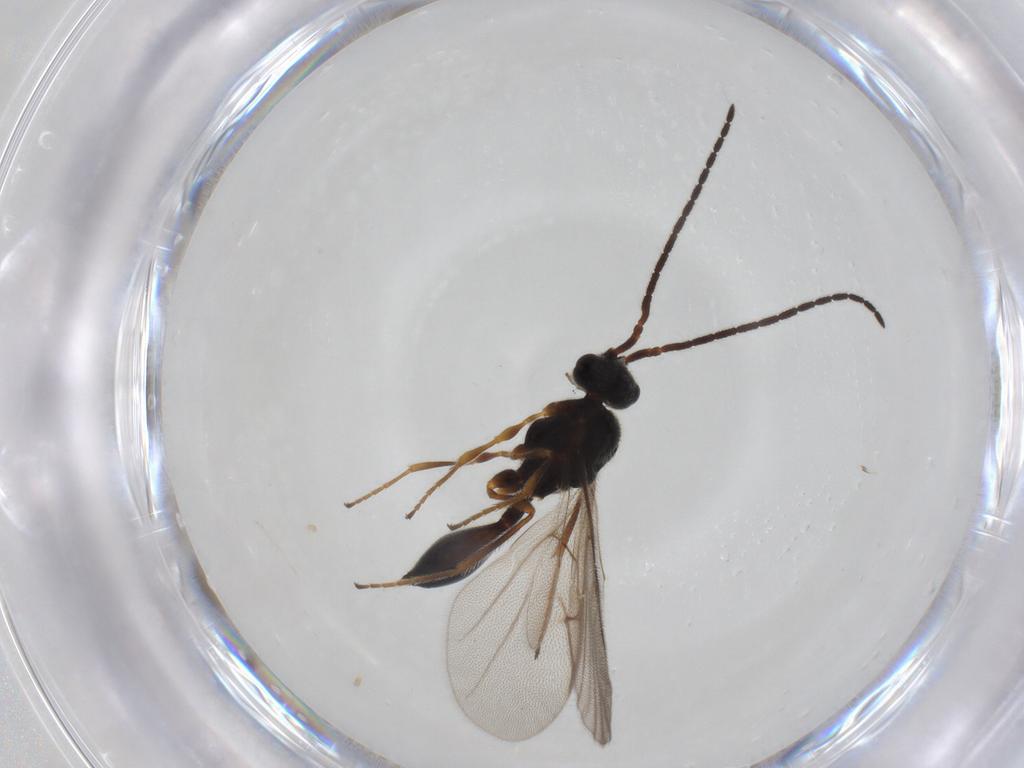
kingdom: Animalia
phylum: Arthropoda
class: Insecta
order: Hymenoptera
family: Diapriidae
